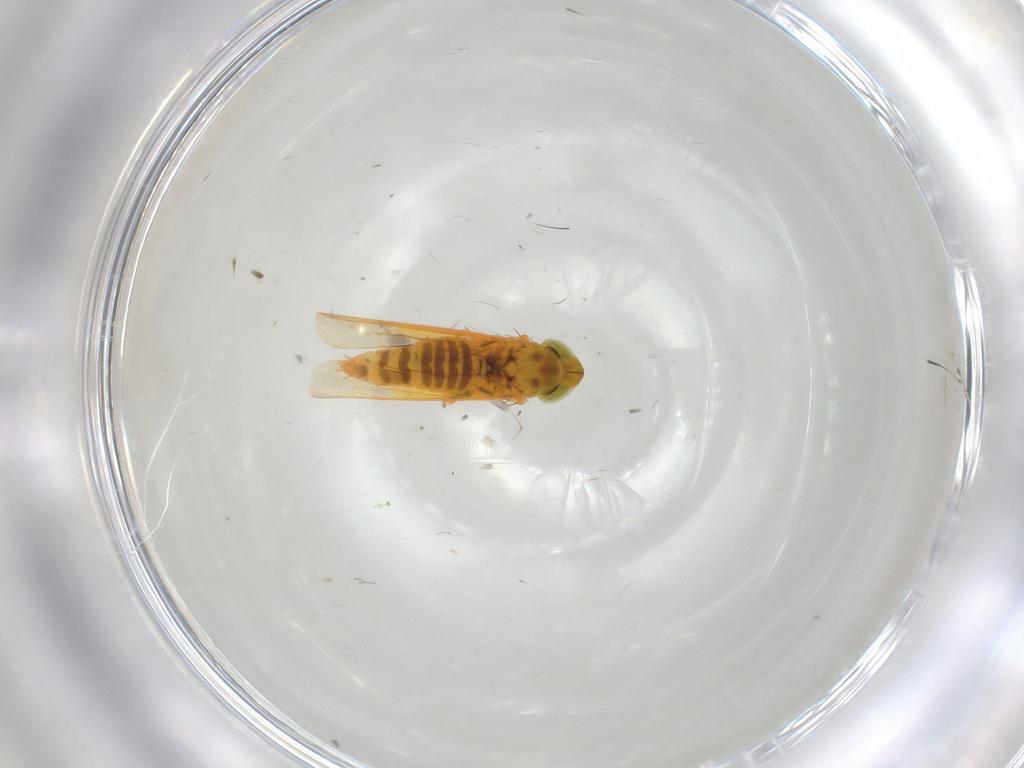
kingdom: Animalia
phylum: Arthropoda
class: Insecta
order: Hemiptera
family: Cicadellidae
